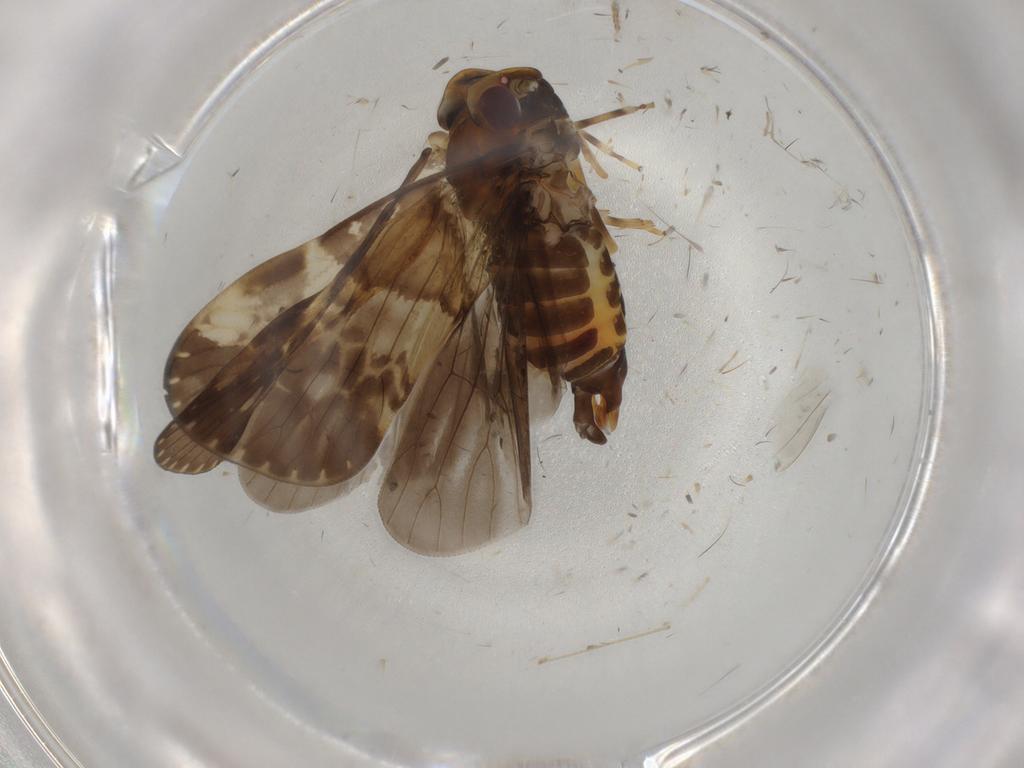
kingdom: Animalia
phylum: Arthropoda
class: Insecta
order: Hemiptera
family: Cixiidae
